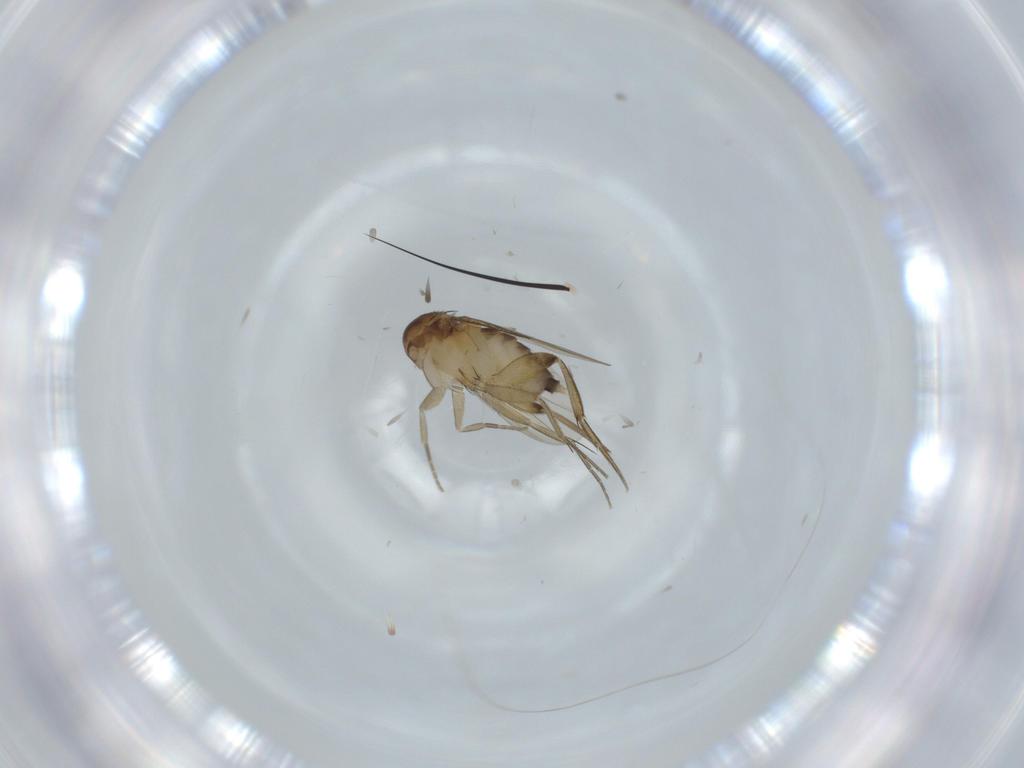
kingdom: Animalia
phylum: Arthropoda
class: Insecta
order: Diptera
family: Phoridae
